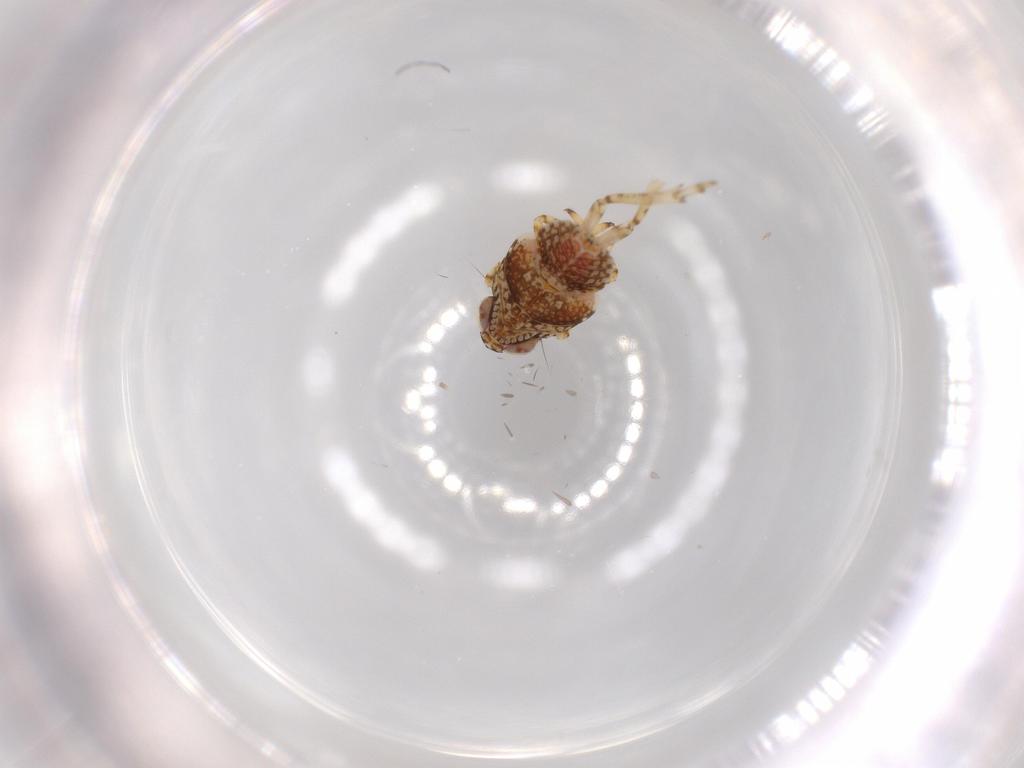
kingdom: Animalia
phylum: Arthropoda
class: Insecta
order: Hemiptera
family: Issidae
